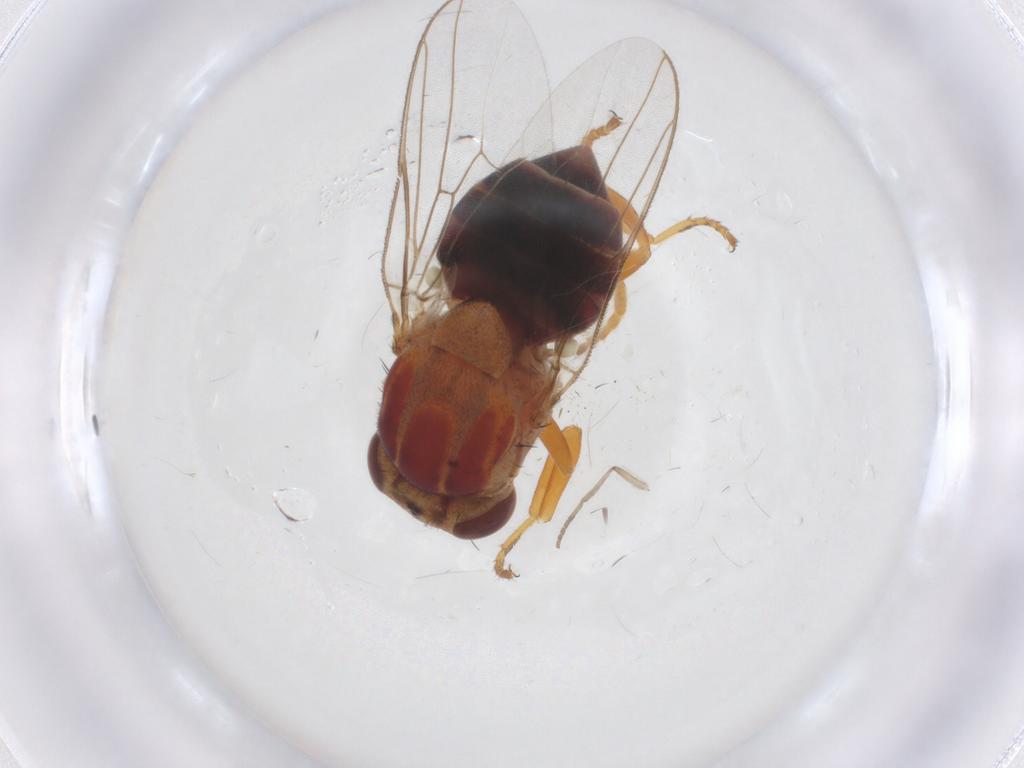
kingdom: Animalia
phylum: Arthropoda
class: Insecta
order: Diptera
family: Chloropidae
